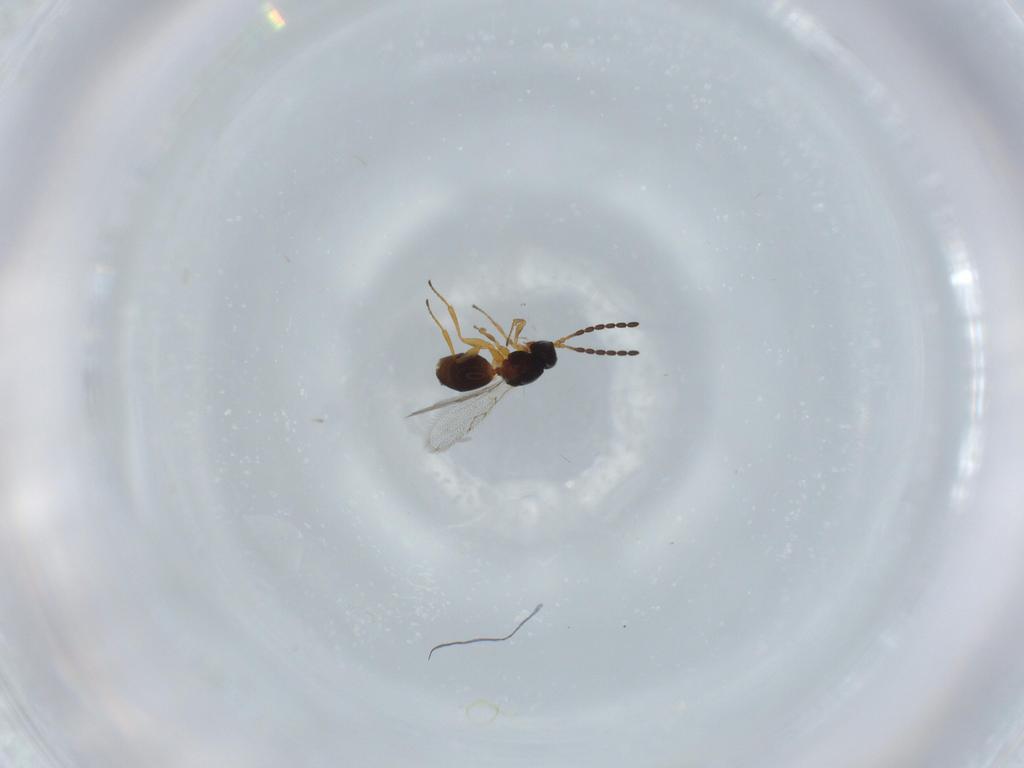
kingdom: Animalia
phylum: Arthropoda
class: Insecta
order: Hymenoptera
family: Figitidae
